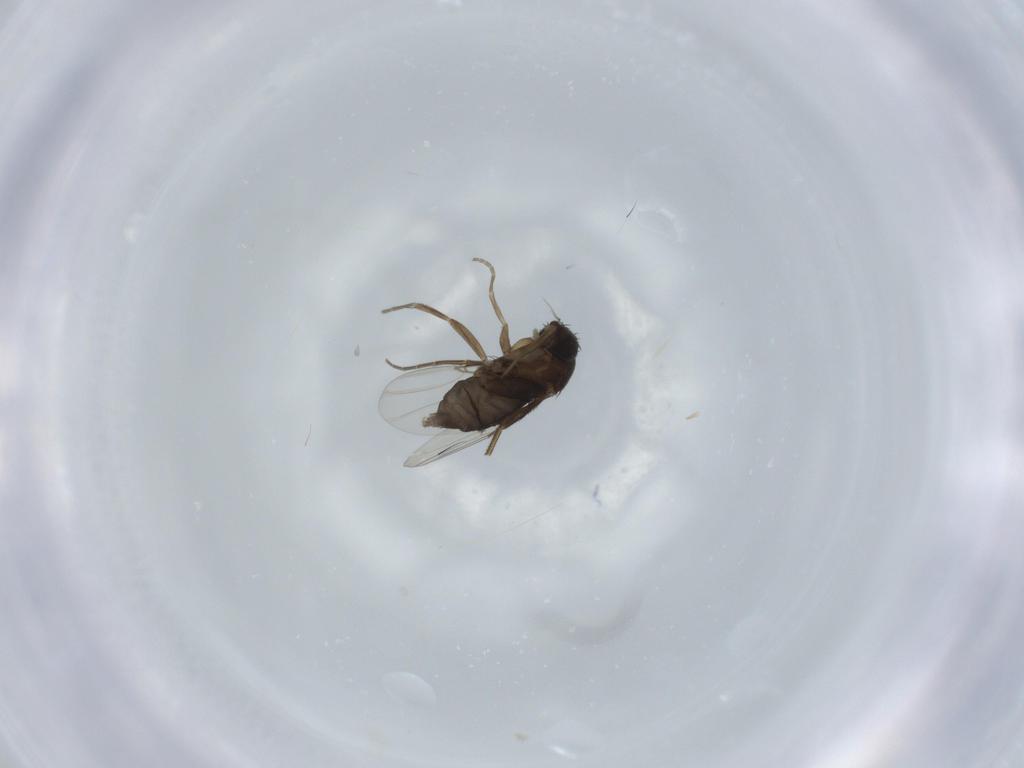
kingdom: Animalia
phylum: Arthropoda
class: Insecta
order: Diptera
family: Phoridae
